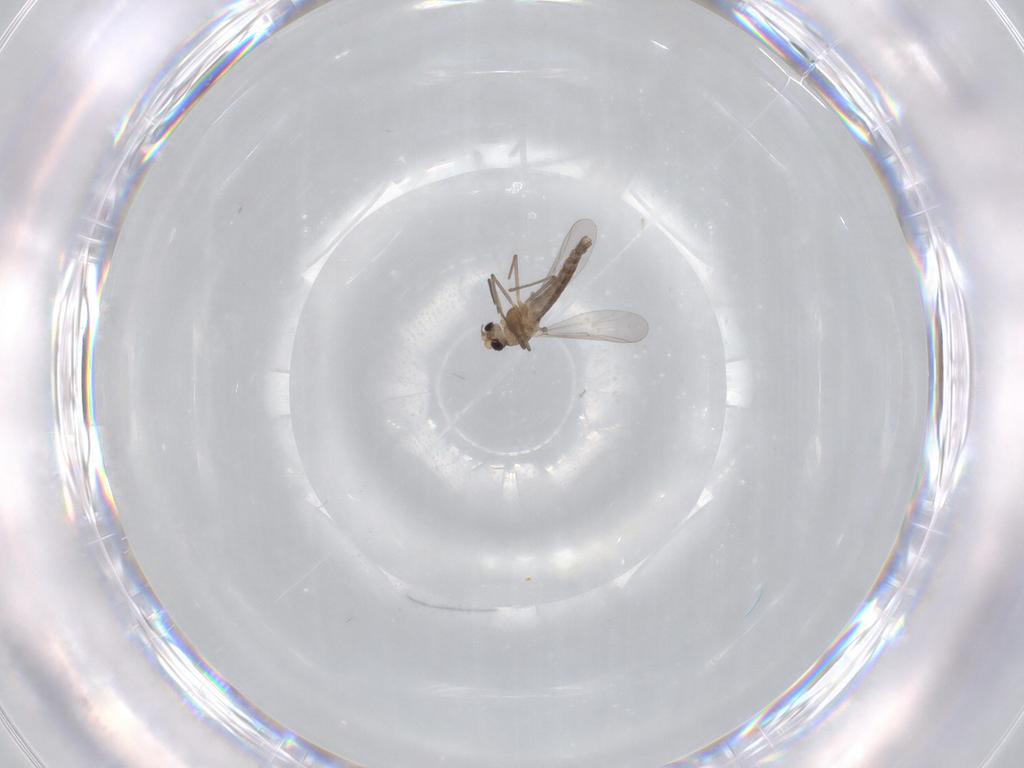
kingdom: Animalia
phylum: Arthropoda
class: Insecta
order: Diptera
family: Chironomidae
